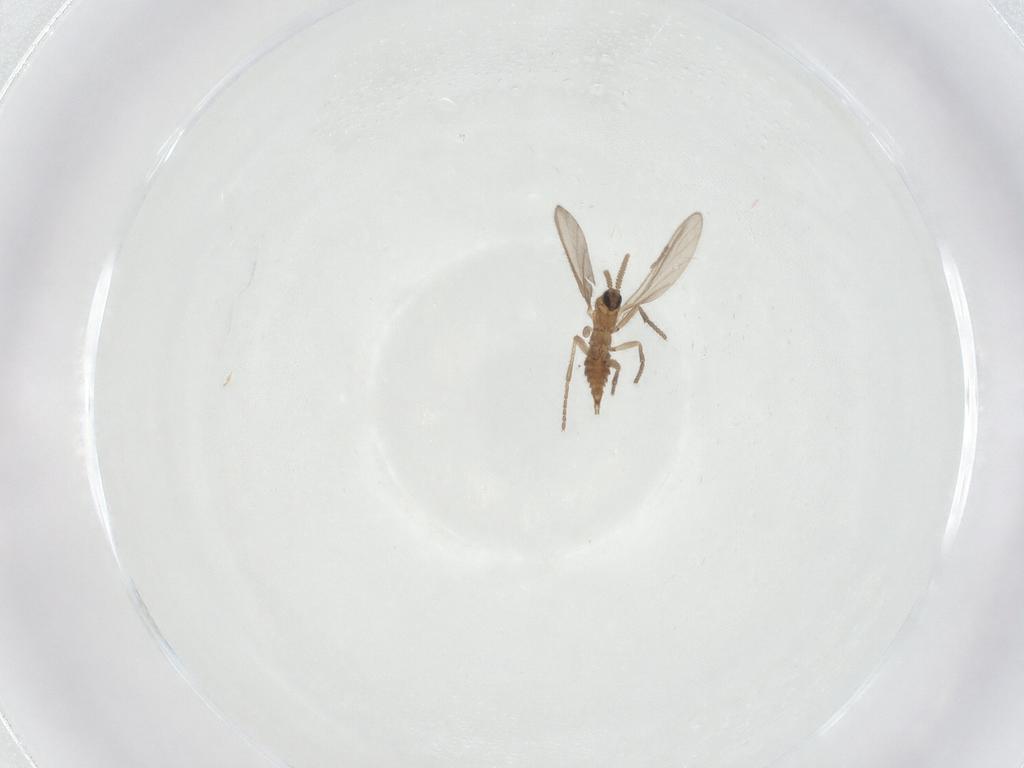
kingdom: Animalia
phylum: Arthropoda
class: Insecta
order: Diptera
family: Sciaridae
